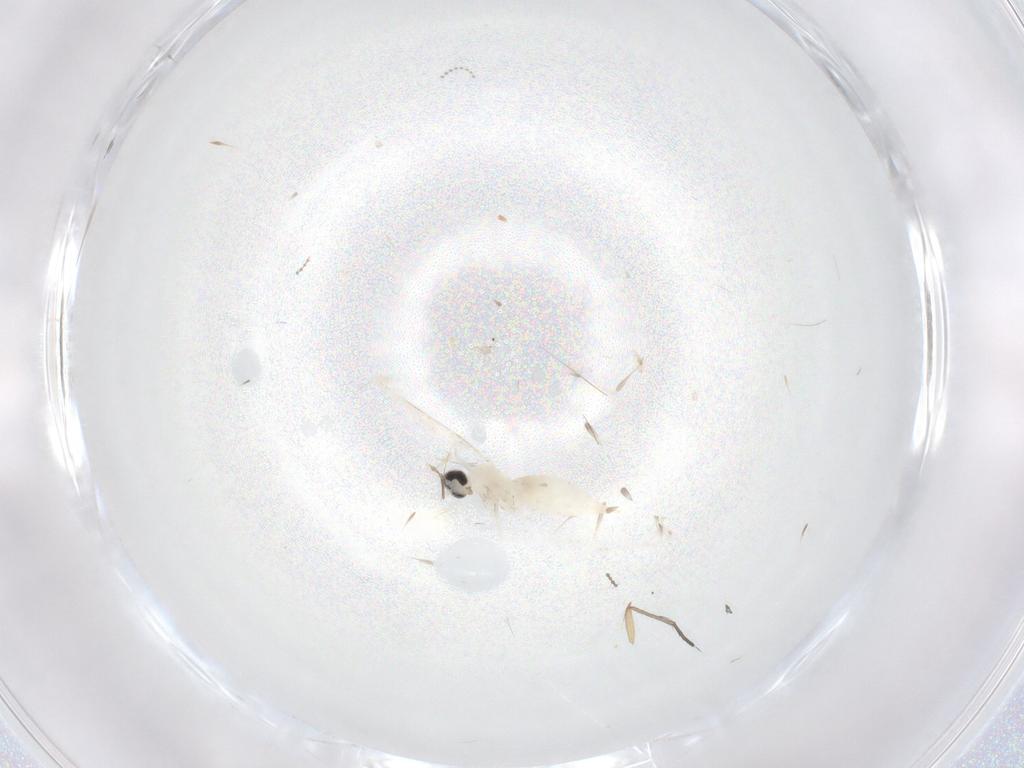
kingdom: Animalia
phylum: Arthropoda
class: Insecta
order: Diptera
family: Cecidomyiidae
